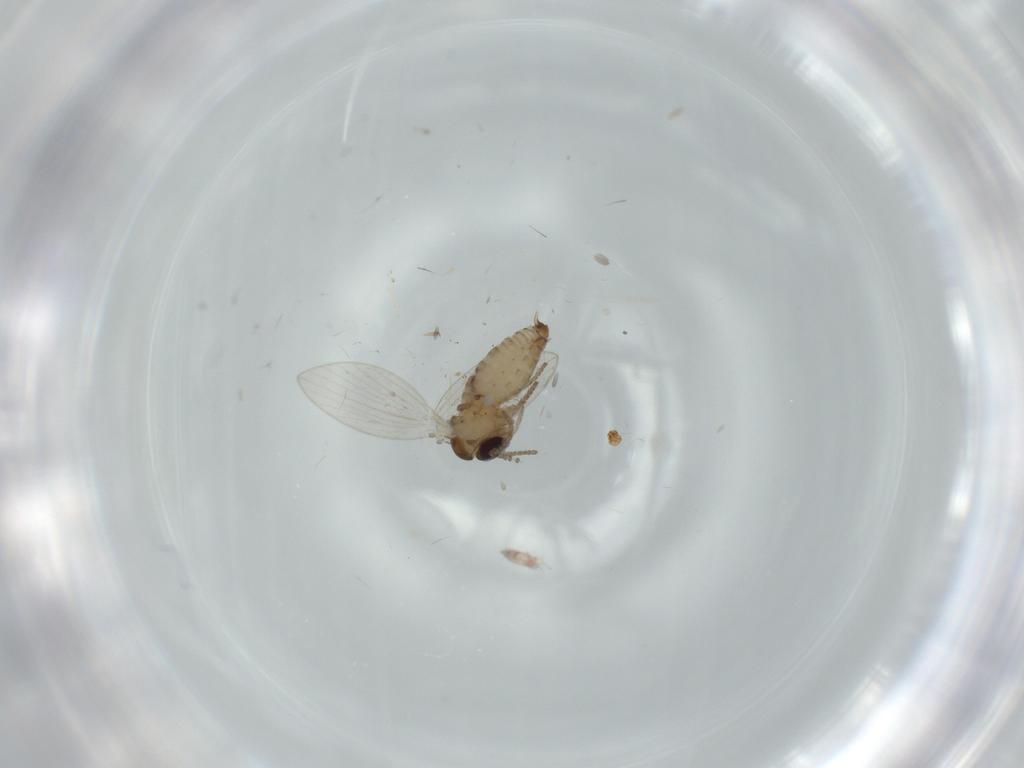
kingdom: Animalia
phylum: Arthropoda
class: Insecta
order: Diptera
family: Psychodidae
